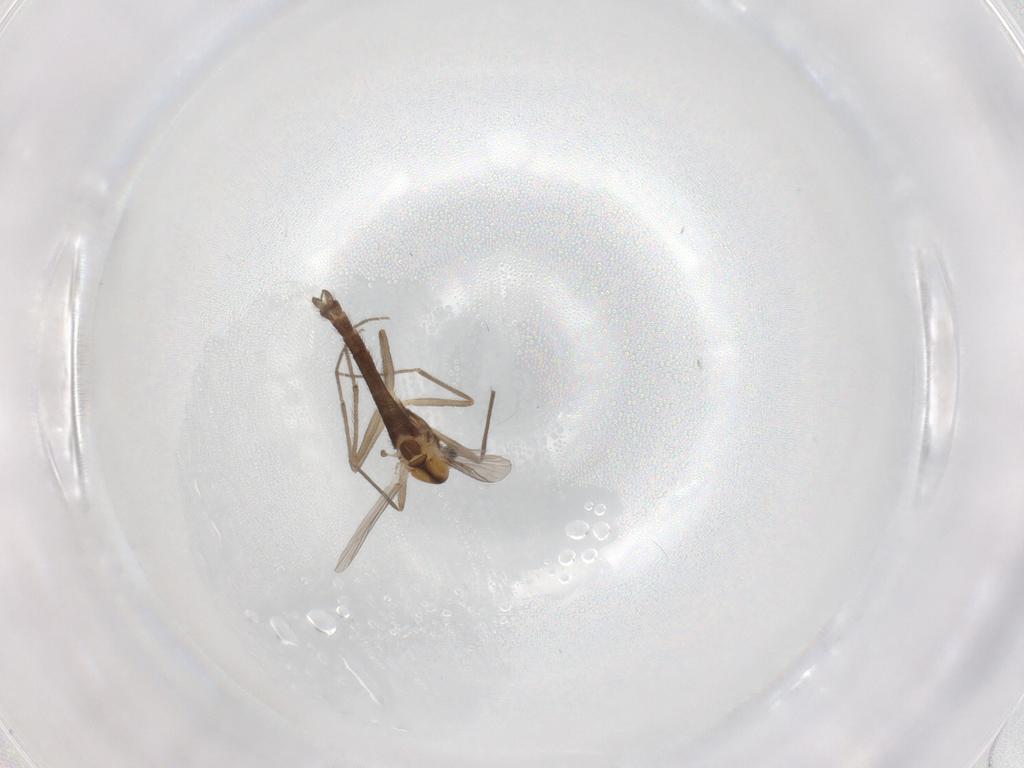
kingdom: Animalia
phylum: Arthropoda
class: Insecta
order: Diptera
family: Chironomidae
